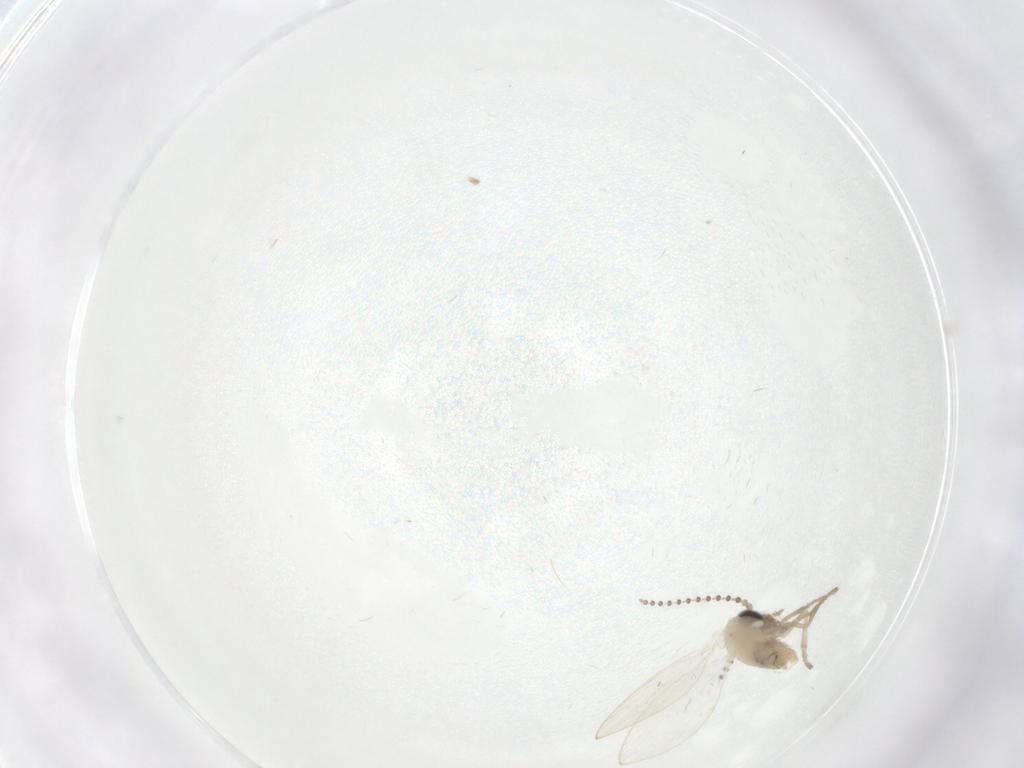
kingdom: Animalia
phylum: Arthropoda
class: Insecta
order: Diptera
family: Psychodidae
